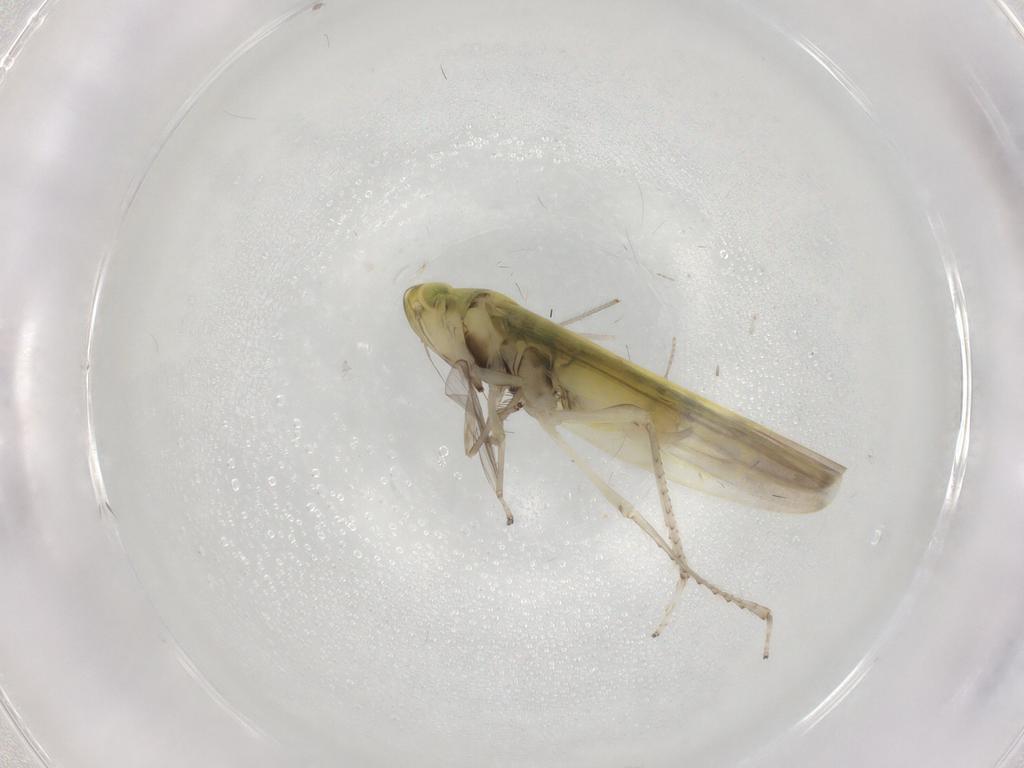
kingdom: Animalia
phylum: Arthropoda
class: Insecta
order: Hemiptera
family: Cicadellidae
